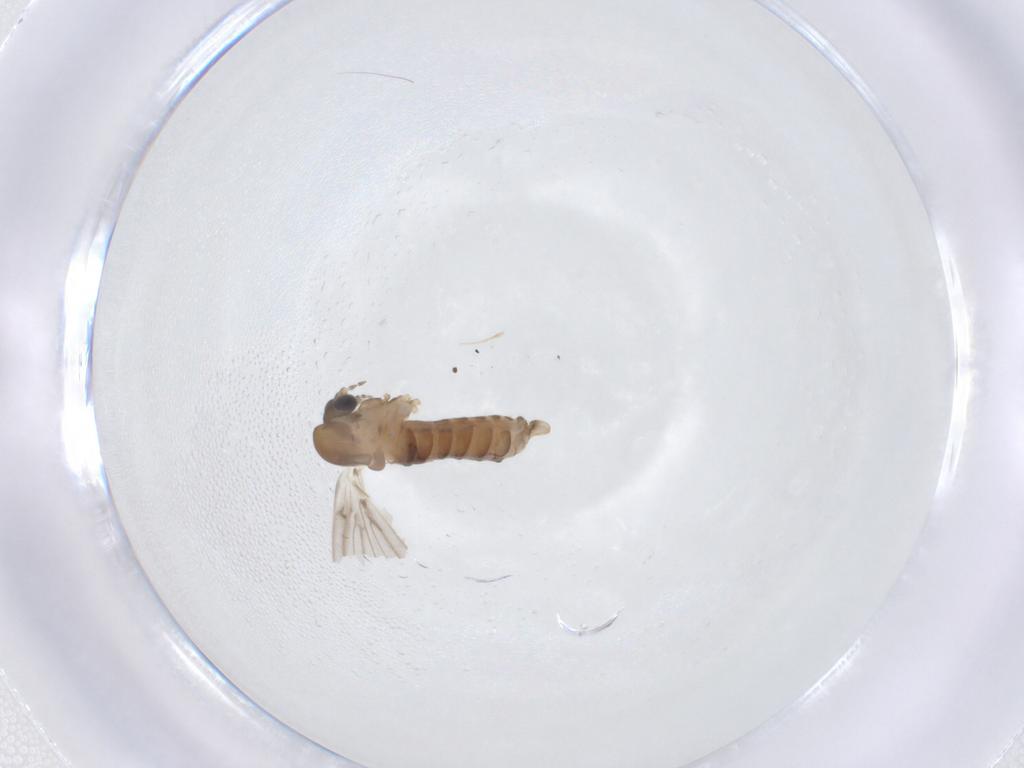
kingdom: Animalia
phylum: Arthropoda
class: Insecta
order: Diptera
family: Psychodidae
